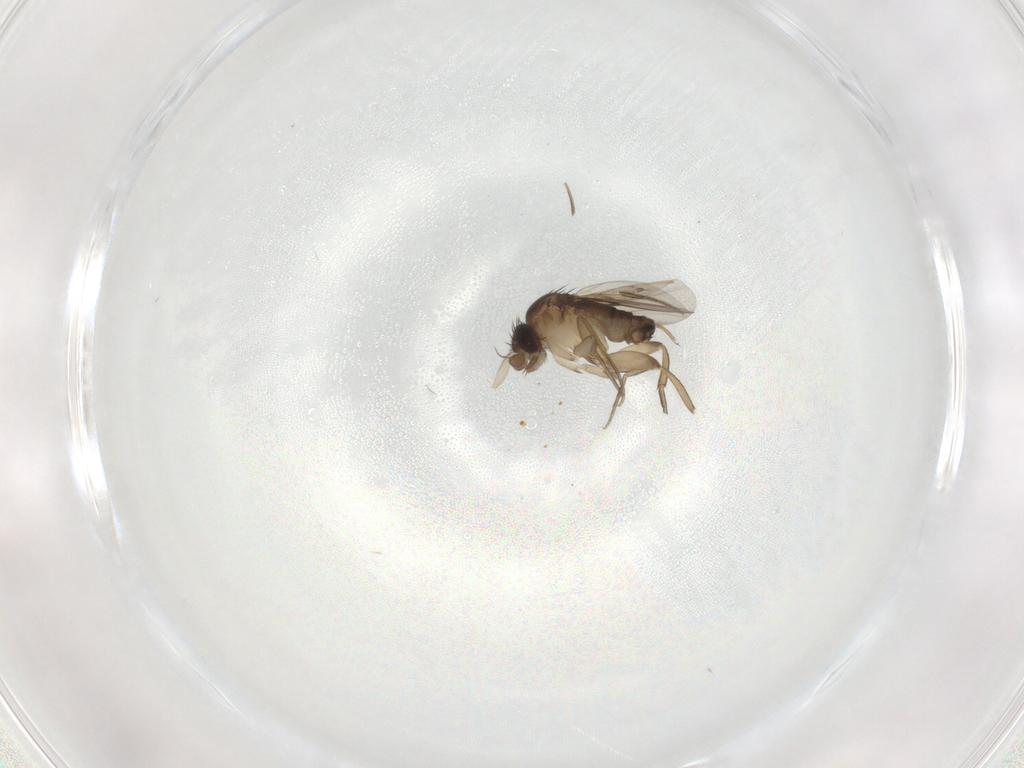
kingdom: Animalia
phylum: Arthropoda
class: Insecta
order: Diptera
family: Phoridae
